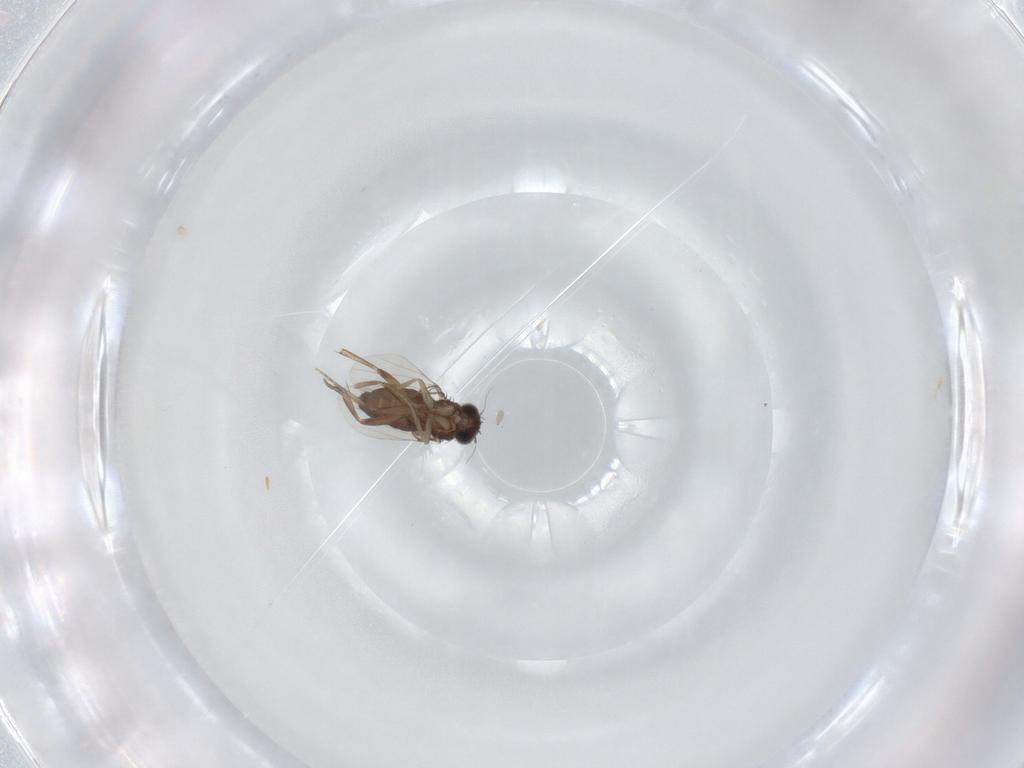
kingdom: Animalia
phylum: Arthropoda
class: Insecta
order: Diptera
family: Phoridae
